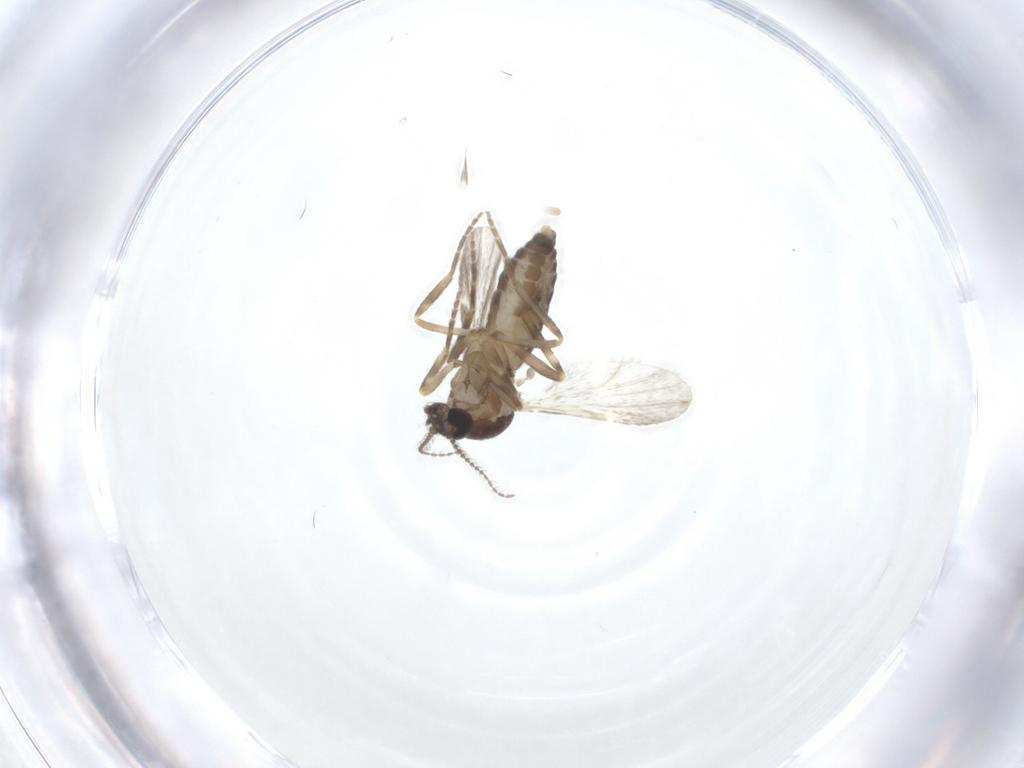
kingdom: Animalia
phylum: Arthropoda
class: Insecta
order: Diptera
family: Ceratopogonidae
